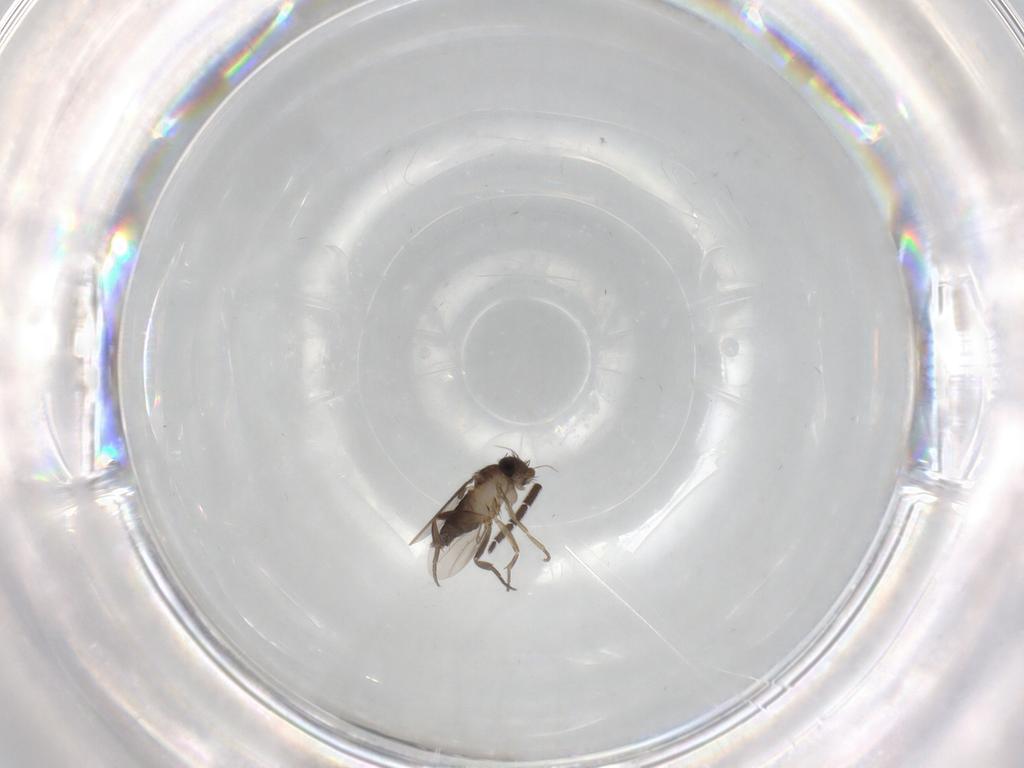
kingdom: Animalia
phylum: Arthropoda
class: Insecta
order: Diptera
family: Phoridae
